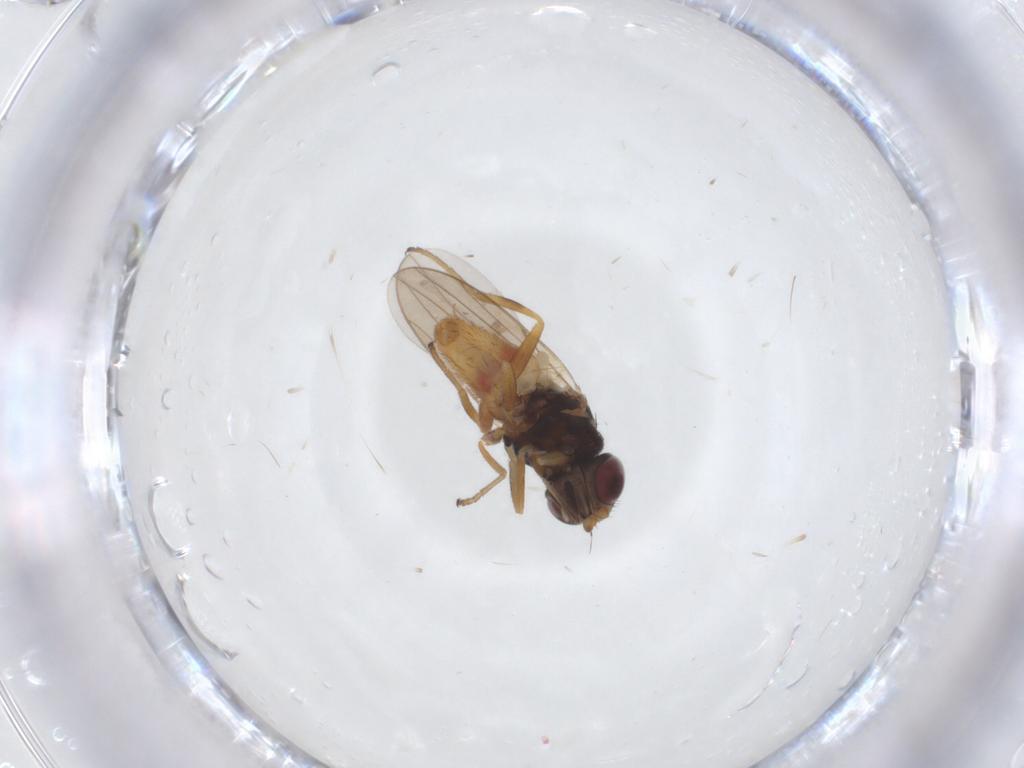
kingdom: Animalia
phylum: Arthropoda
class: Insecta
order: Diptera
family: Chloropidae
